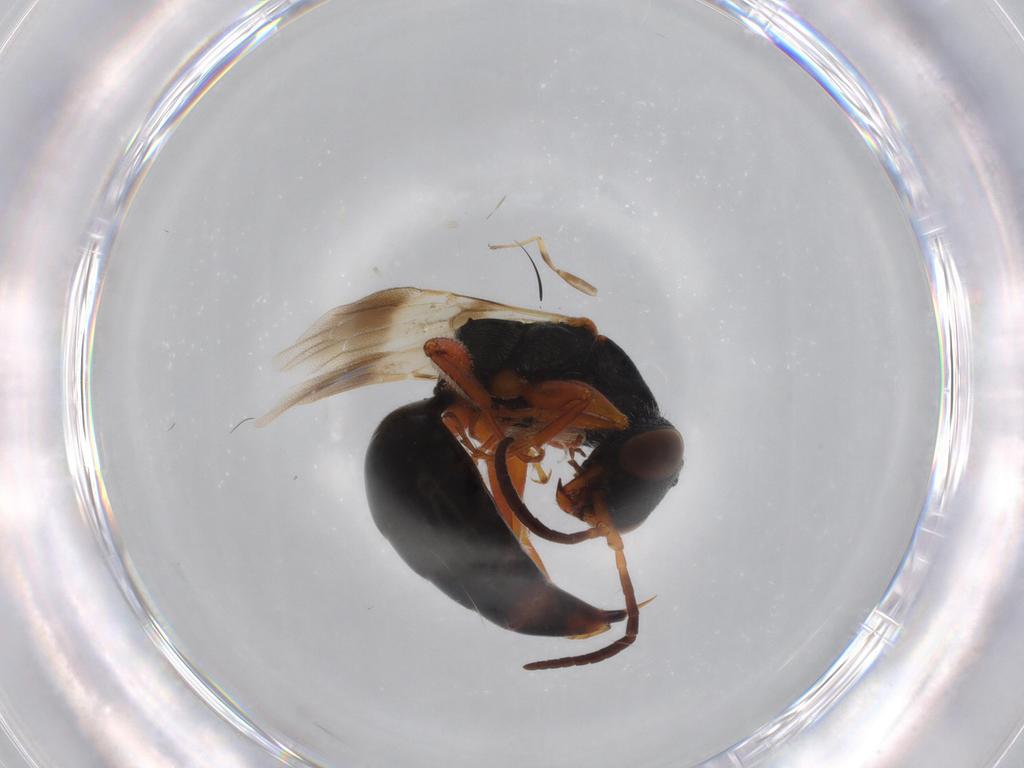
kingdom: Animalia
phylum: Arthropoda
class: Insecta
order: Hymenoptera
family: Bethylidae
